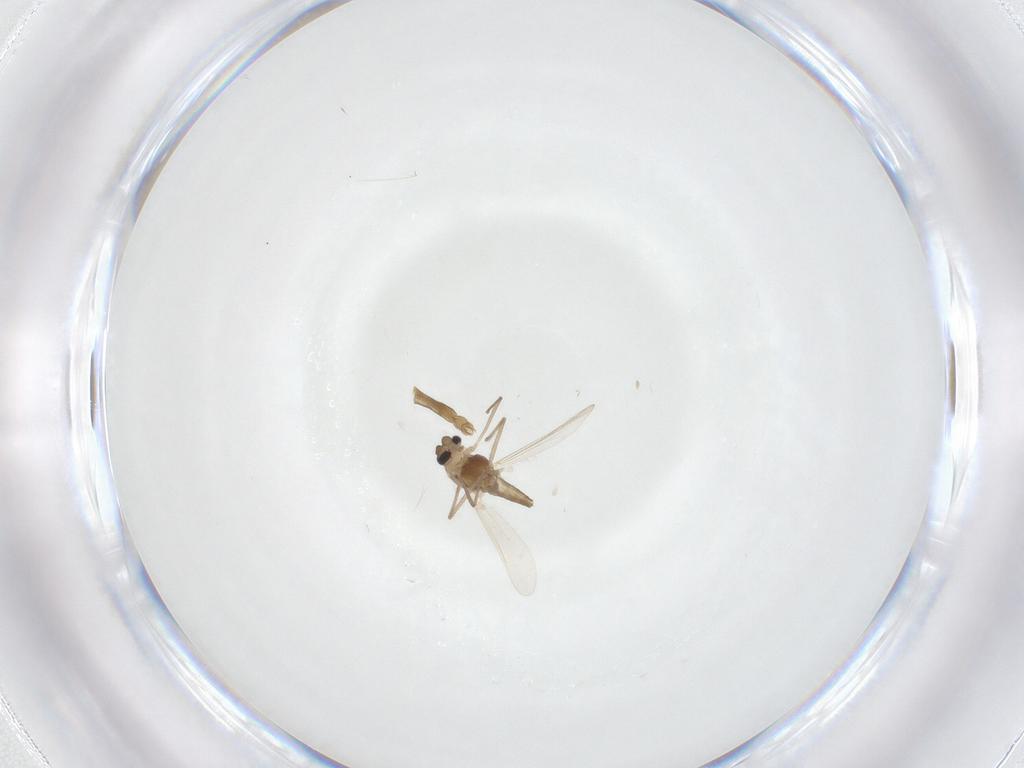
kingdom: Animalia
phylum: Arthropoda
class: Insecta
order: Diptera
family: Chironomidae
